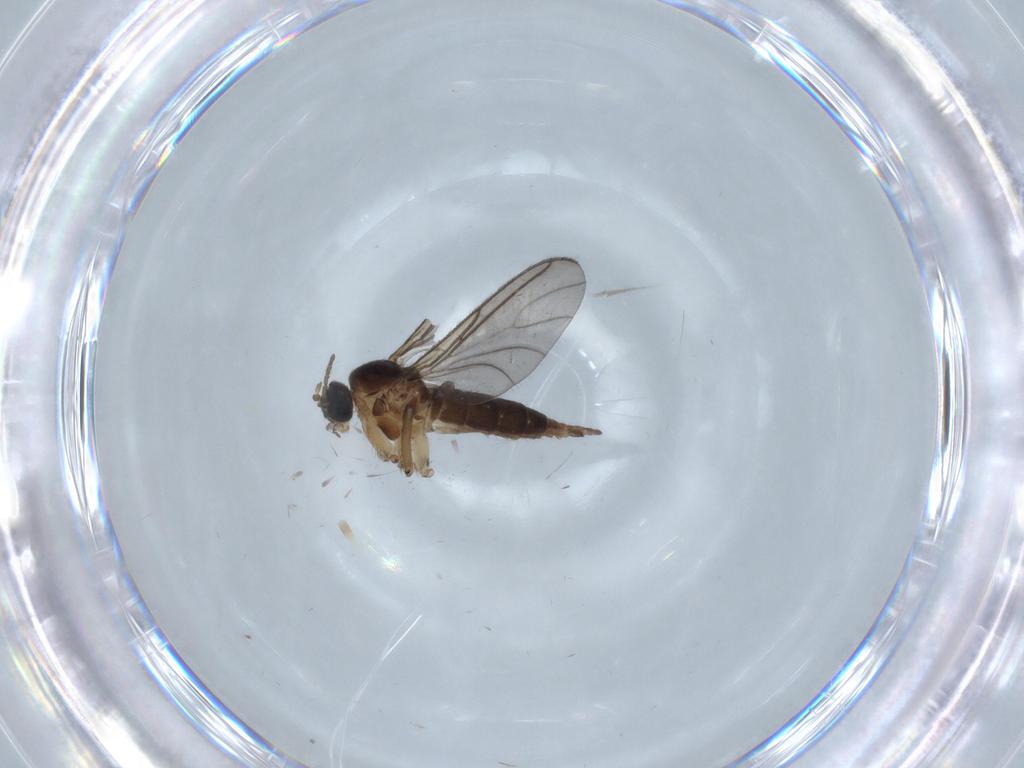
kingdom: Animalia
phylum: Arthropoda
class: Insecta
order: Diptera
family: Sciaridae
